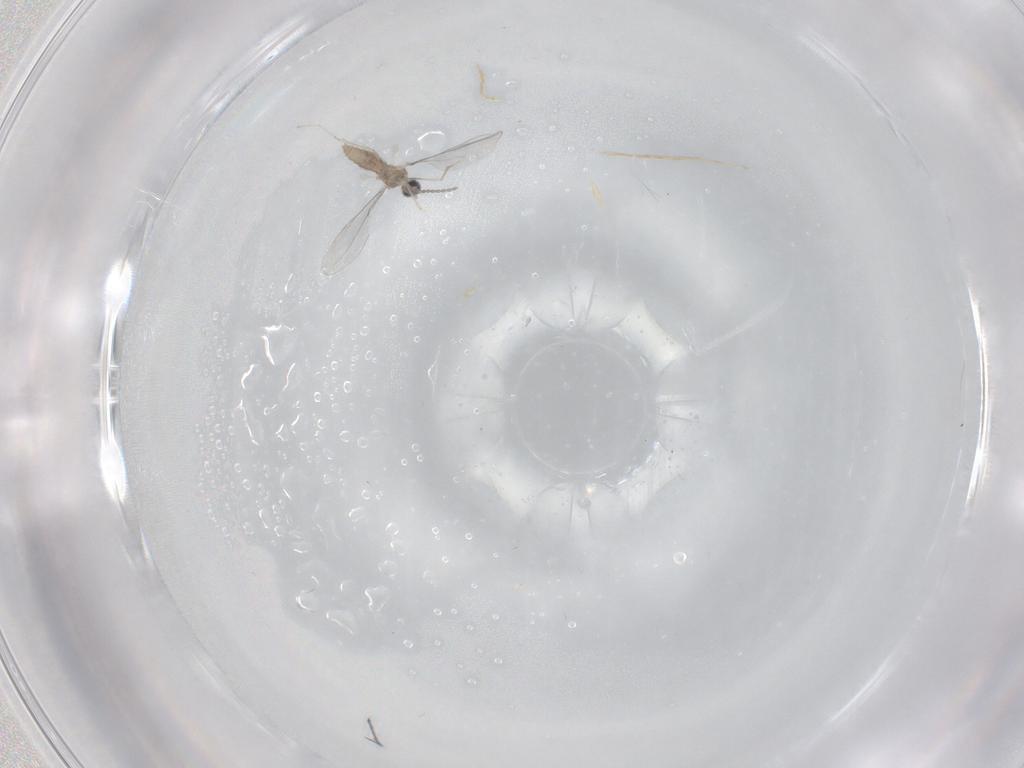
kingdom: Animalia
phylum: Arthropoda
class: Insecta
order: Diptera
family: Cecidomyiidae
